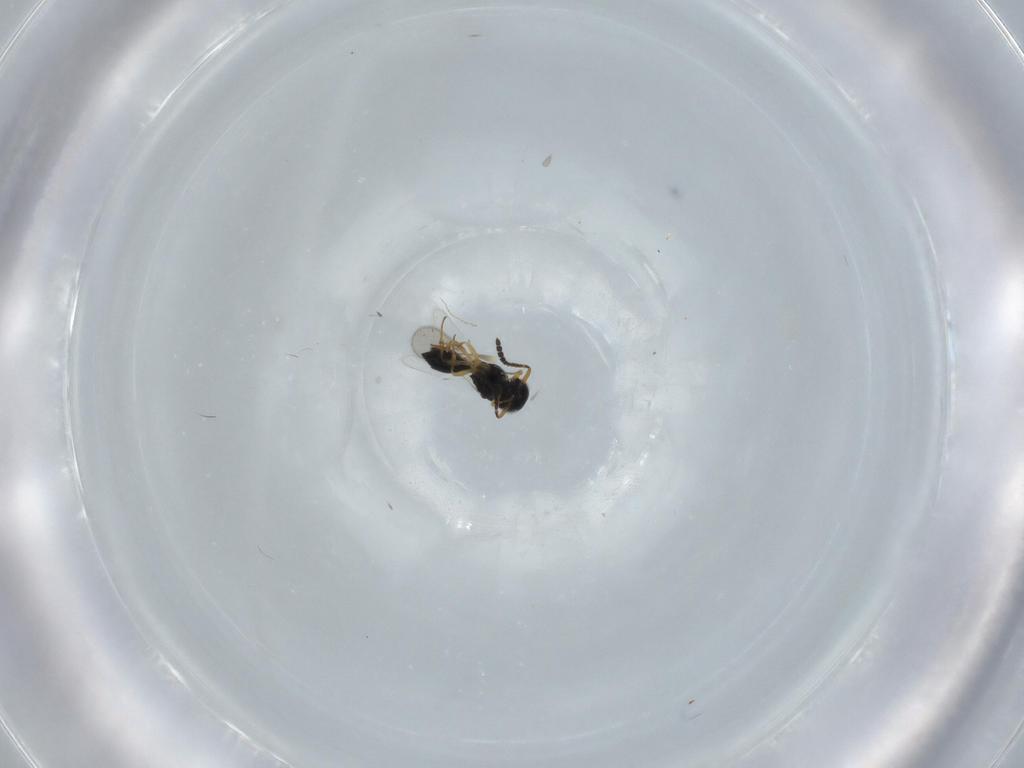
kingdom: Animalia
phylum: Arthropoda
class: Insecta
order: Hymenoptera
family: Scelionidae
